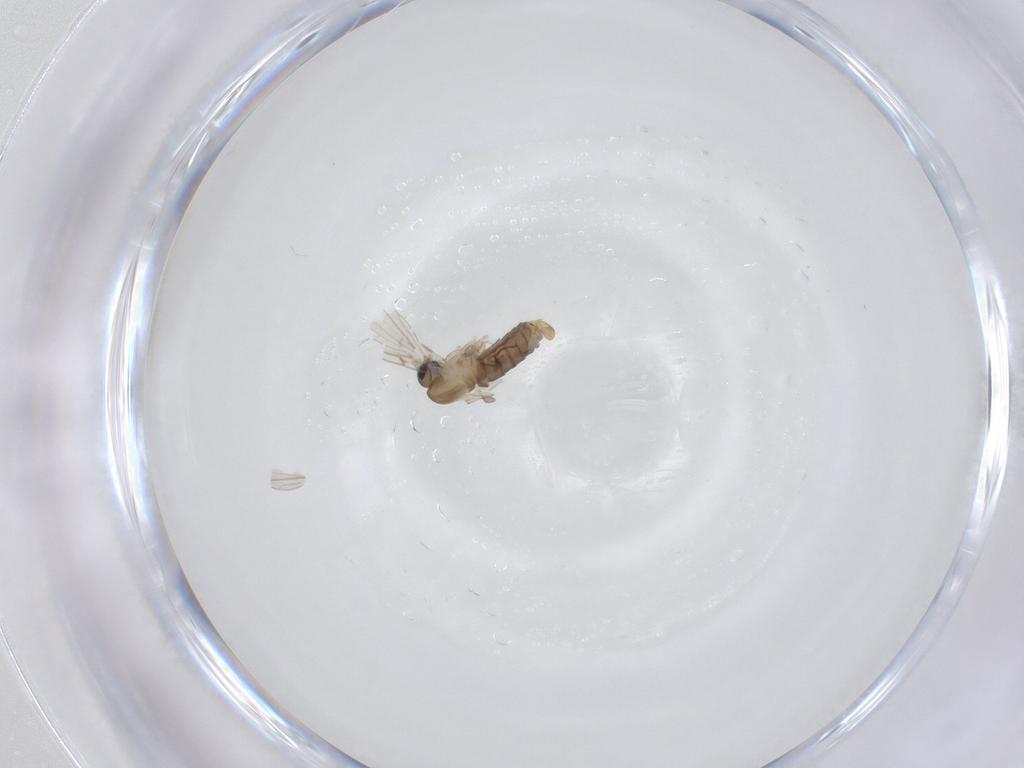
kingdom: Animalia
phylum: Arthropoda
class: Insecta
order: Diptera
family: Psychodidae
